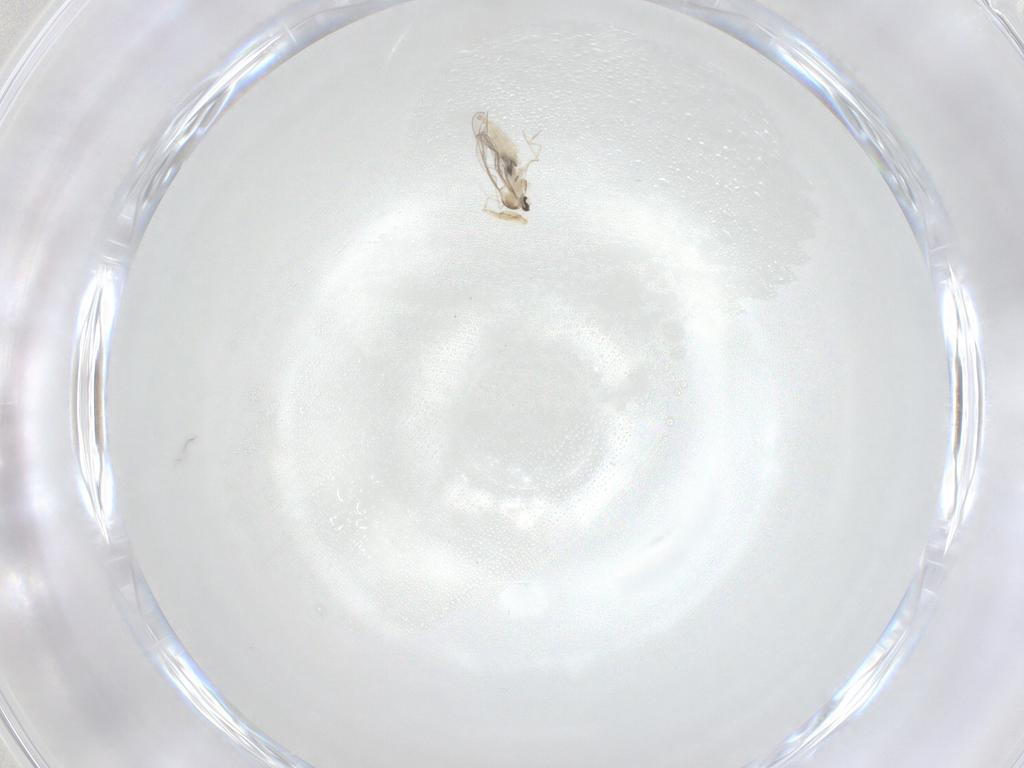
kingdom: Animalia
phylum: Arthropoda
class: Insecta
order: Diptera
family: Cecidomyiidae
